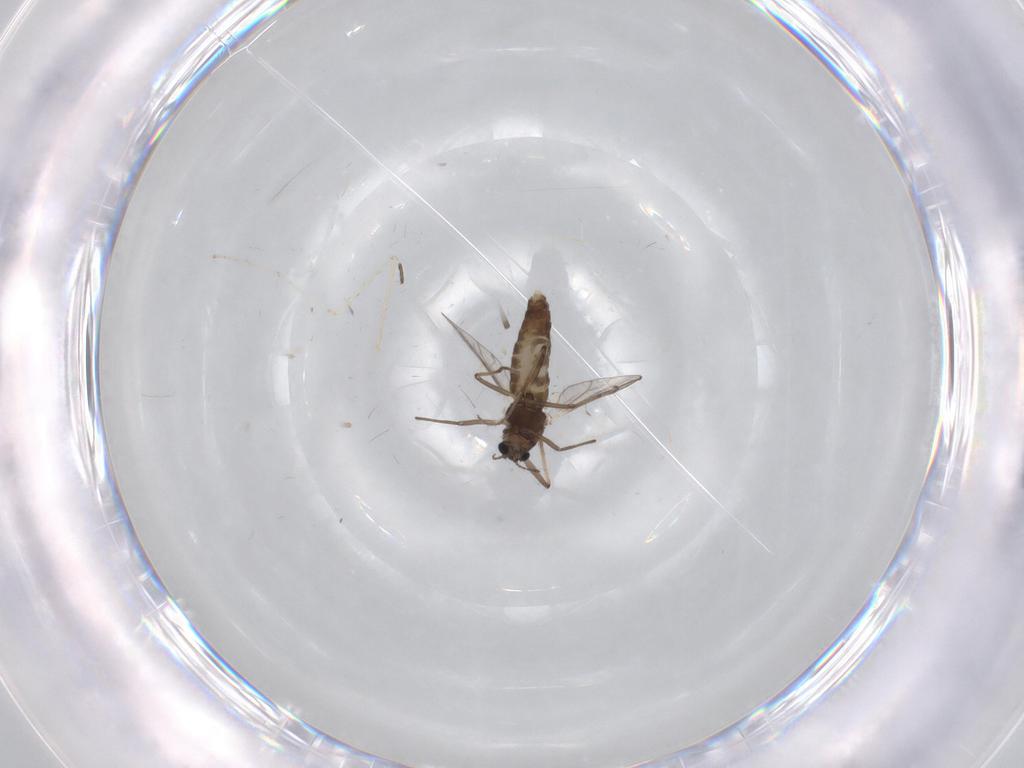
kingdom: Animalia
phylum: Arthropoda
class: Insecta
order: Diptera
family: Chironomidae
